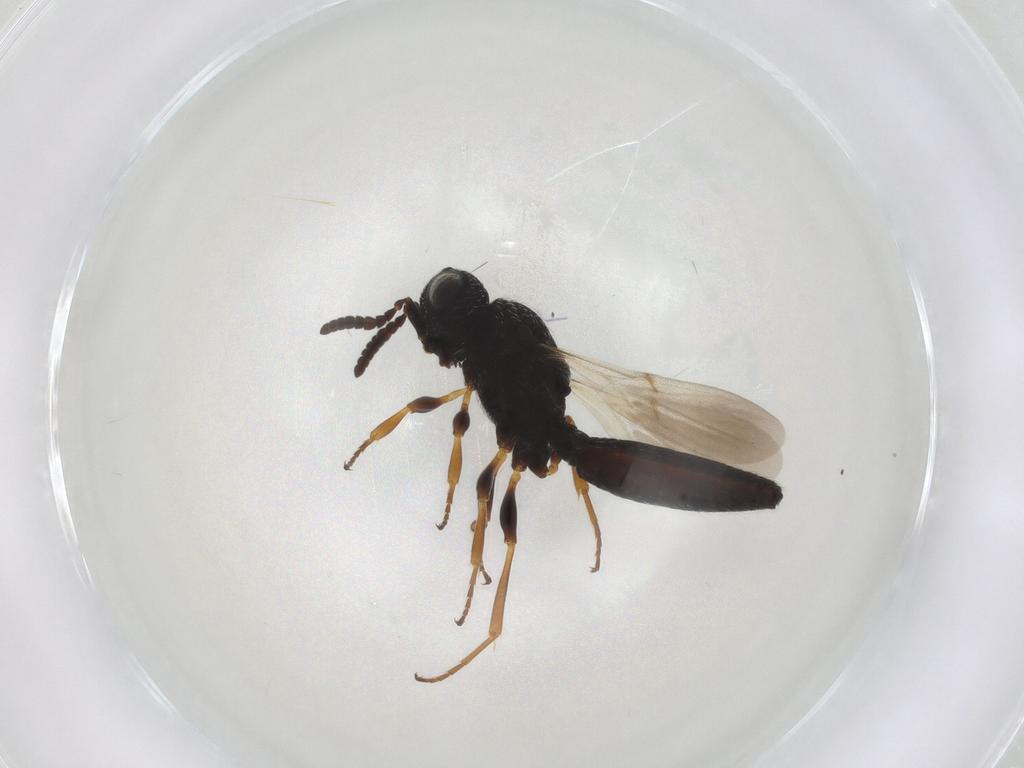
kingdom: Animalia
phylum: Arthropoda
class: Insecta
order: Hymenoptera
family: Scelionidae
